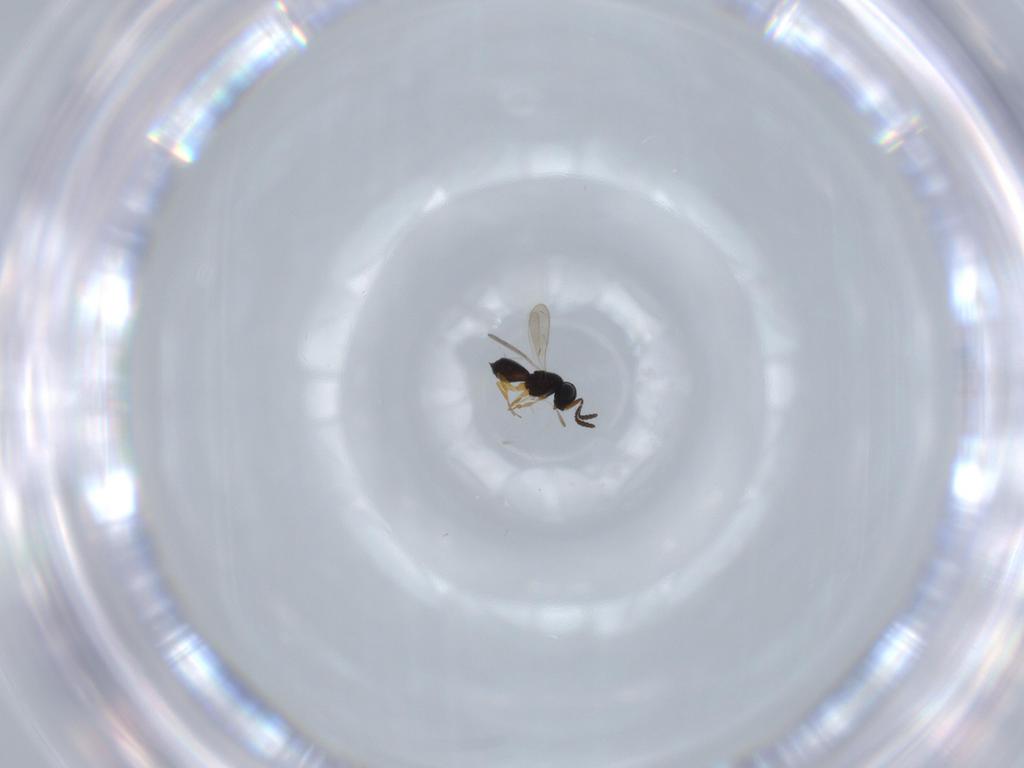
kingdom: Animalia
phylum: Arthropoda
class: Insecta
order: Hymenoptera
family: Scelionidae
